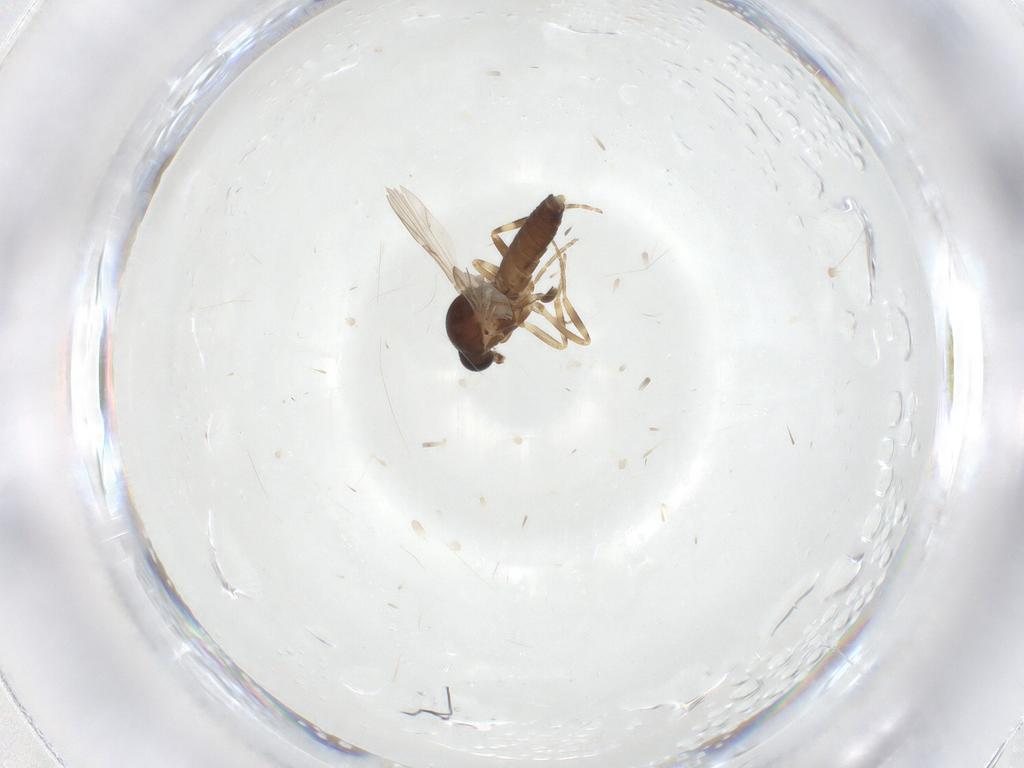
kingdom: Animalia
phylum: Arthropoda
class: Insecta
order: Diptera
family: Ceratopogonidae
